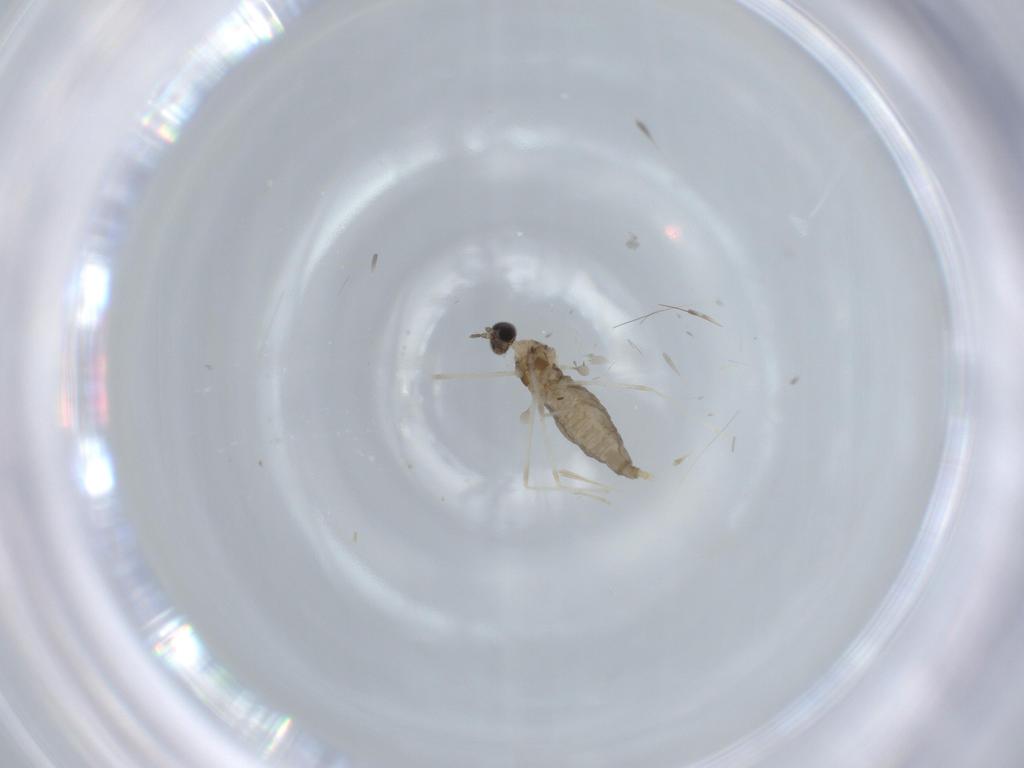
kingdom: Animalia
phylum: Arthropoda
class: Insecta
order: Diptera
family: Cecidomyiidae
